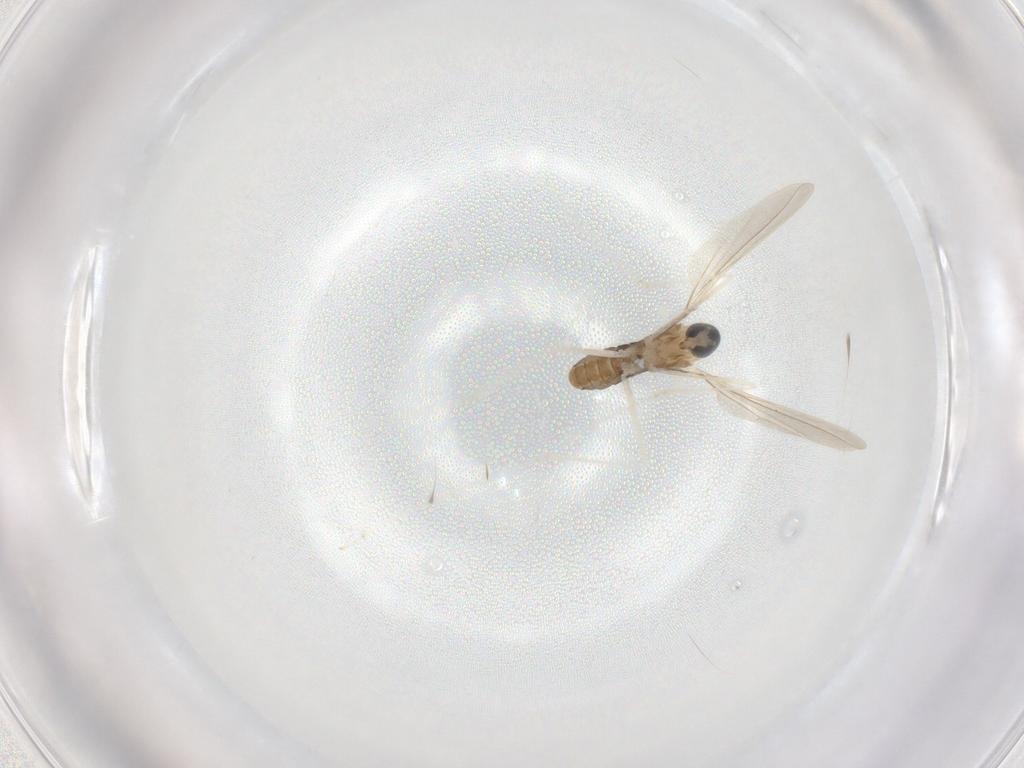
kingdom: Animalia
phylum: Arthropoda
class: Insecta
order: Diptera
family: Cecidomyiidae
